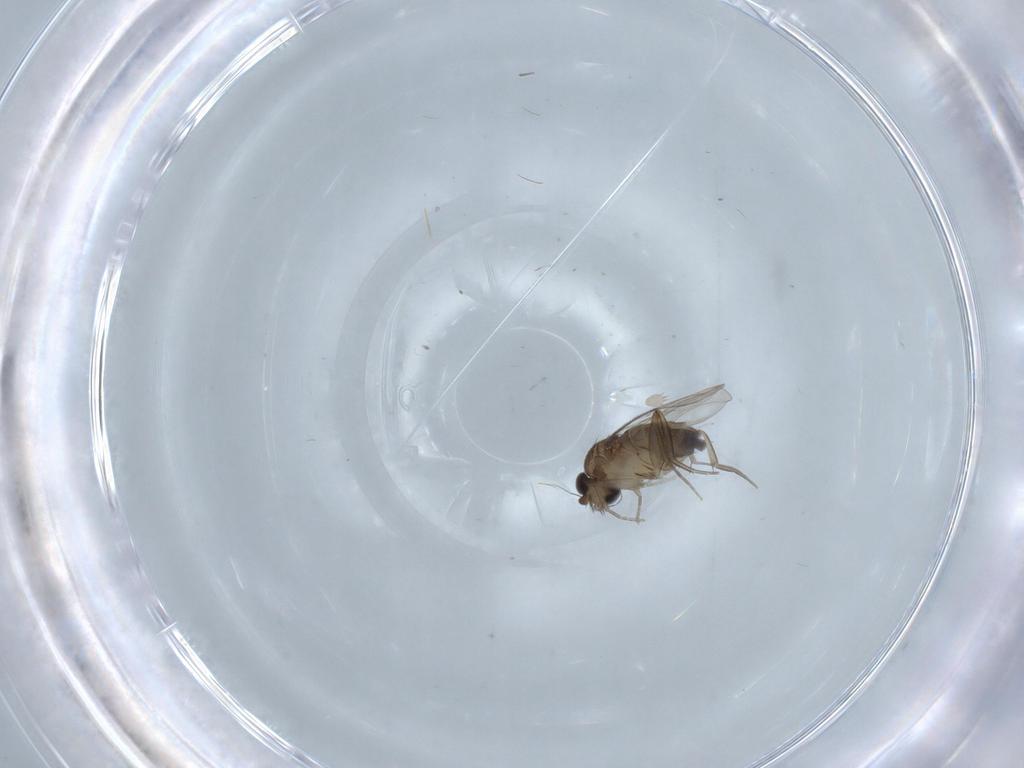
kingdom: Animalia
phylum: Arthropoda
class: Insecta
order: Diptera
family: Phoridae
